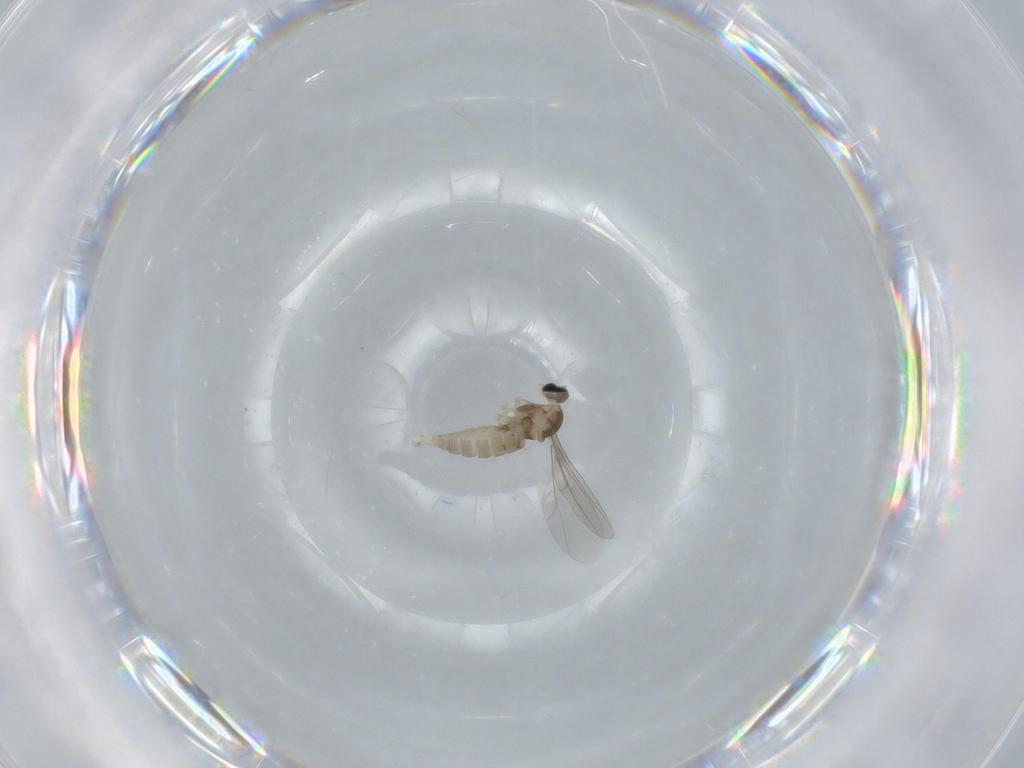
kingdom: Animalia
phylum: Arthropoda
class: Insecta
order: Diptera
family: Cecidomyiidae
